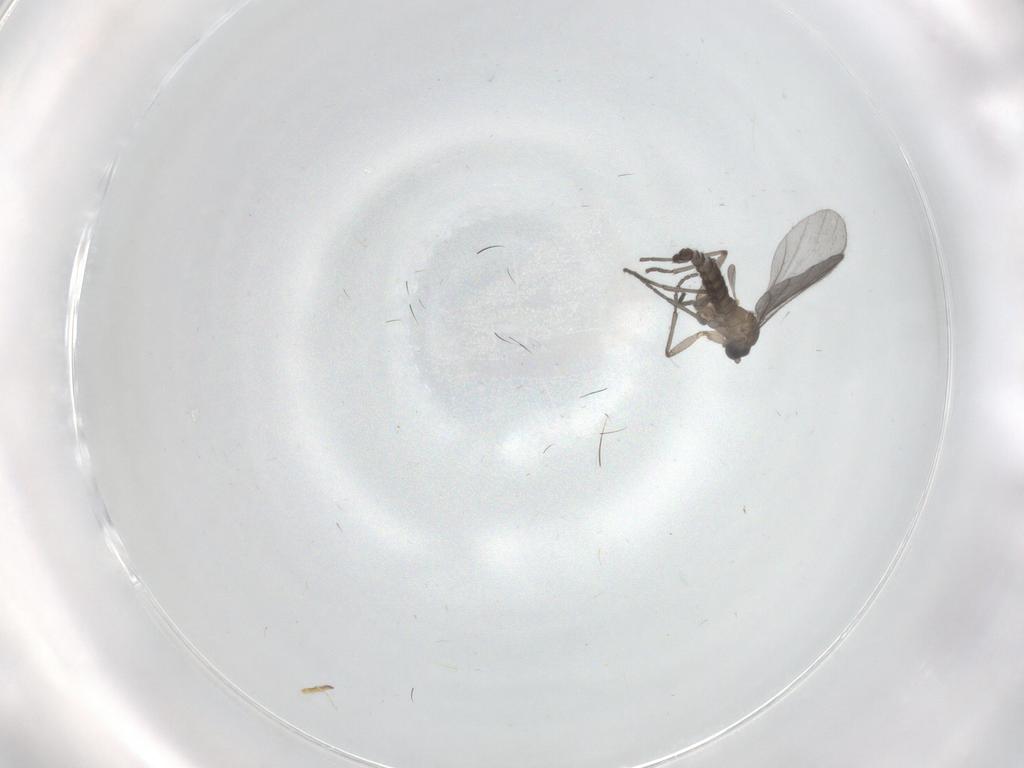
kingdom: Animalia
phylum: Arthropoda
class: Insecta
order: Diptera
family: Sciaridae
